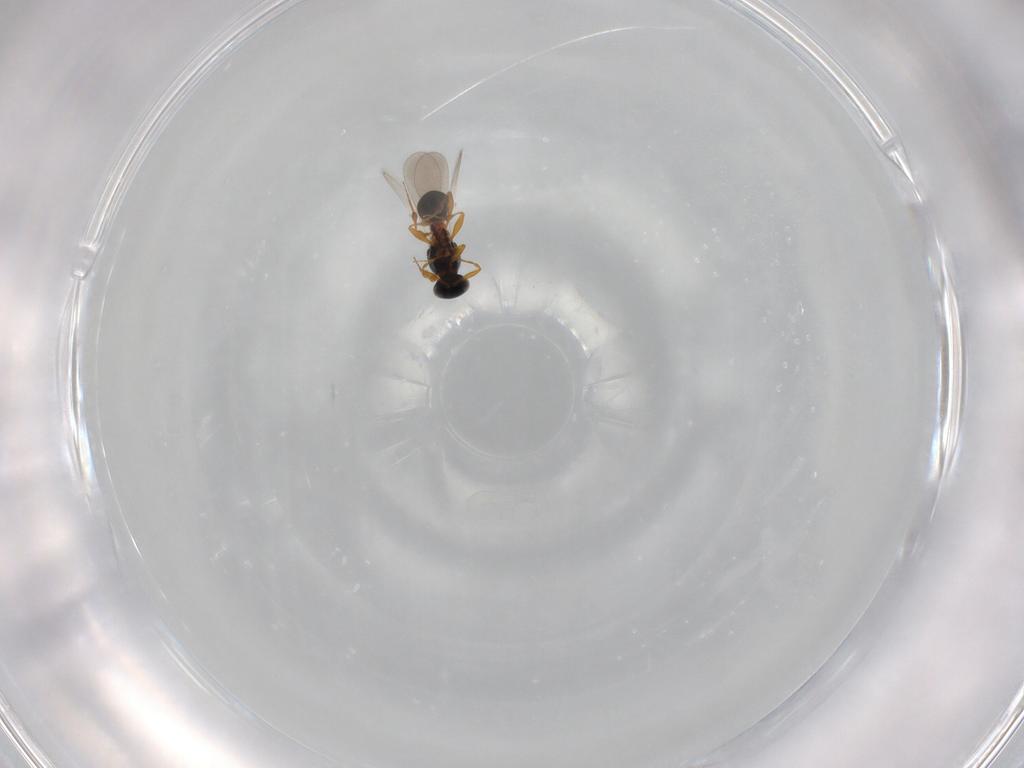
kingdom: Animalia
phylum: Arthropoda
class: Insecta
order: Hymenoptera
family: Platygastridae
